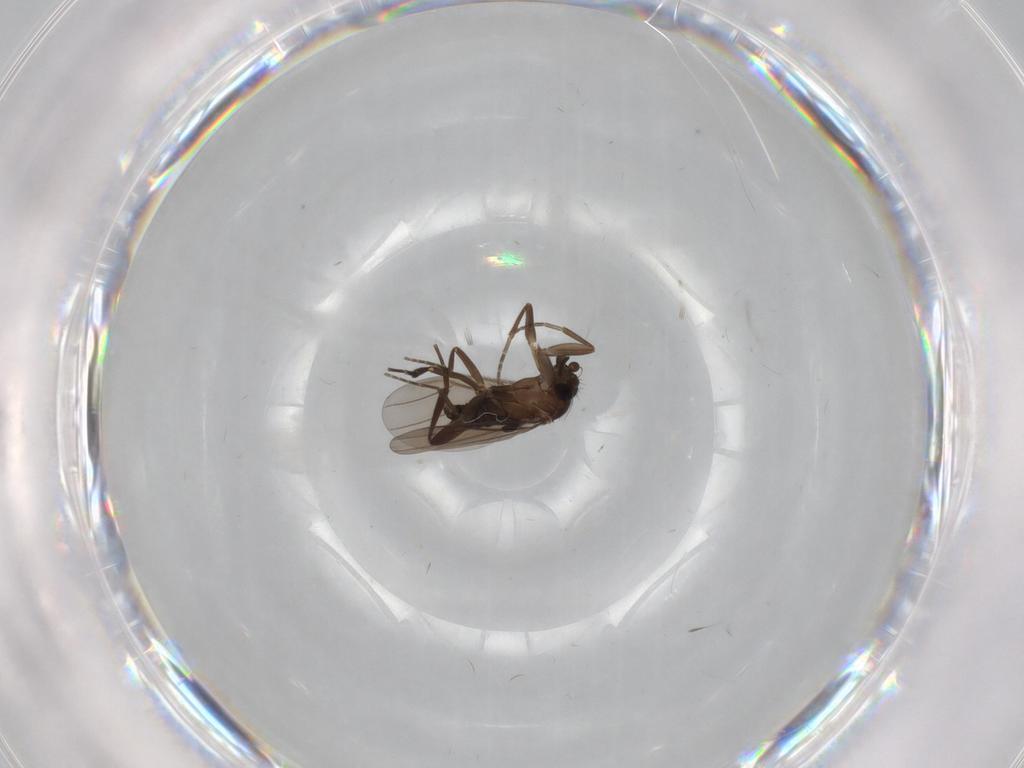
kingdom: Animalia
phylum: Arthropoda
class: Insecta
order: Diptera
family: Phoridae
